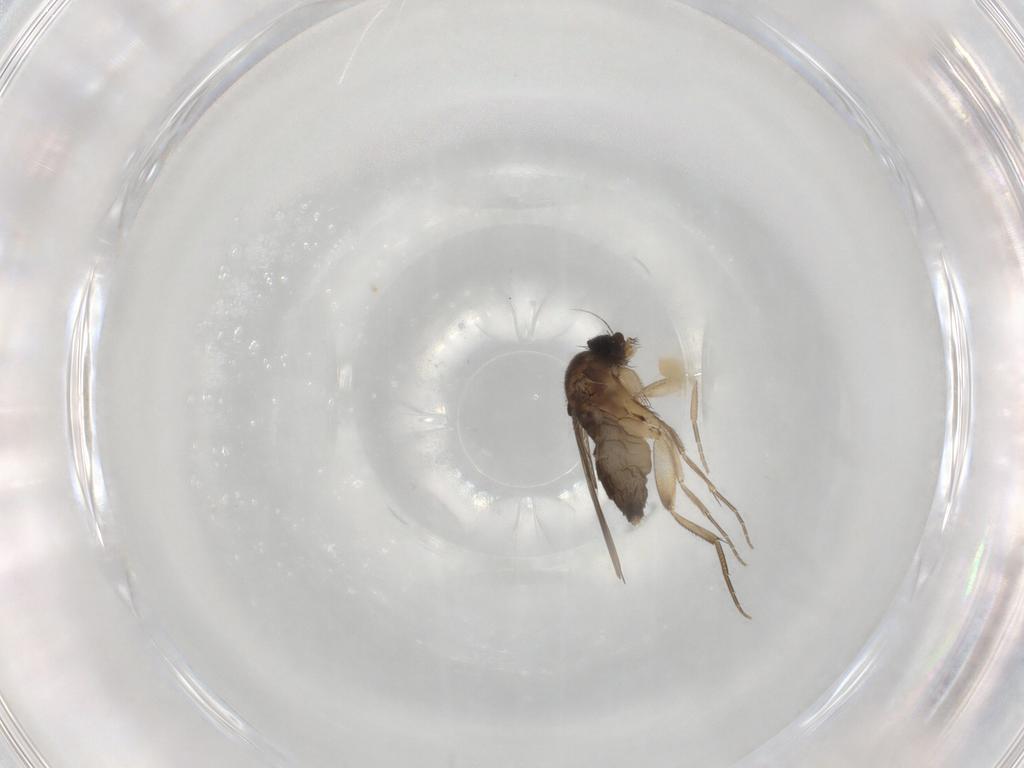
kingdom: Animalia
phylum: Arthropoda
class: Insecta
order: Diptera
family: Phoridae
